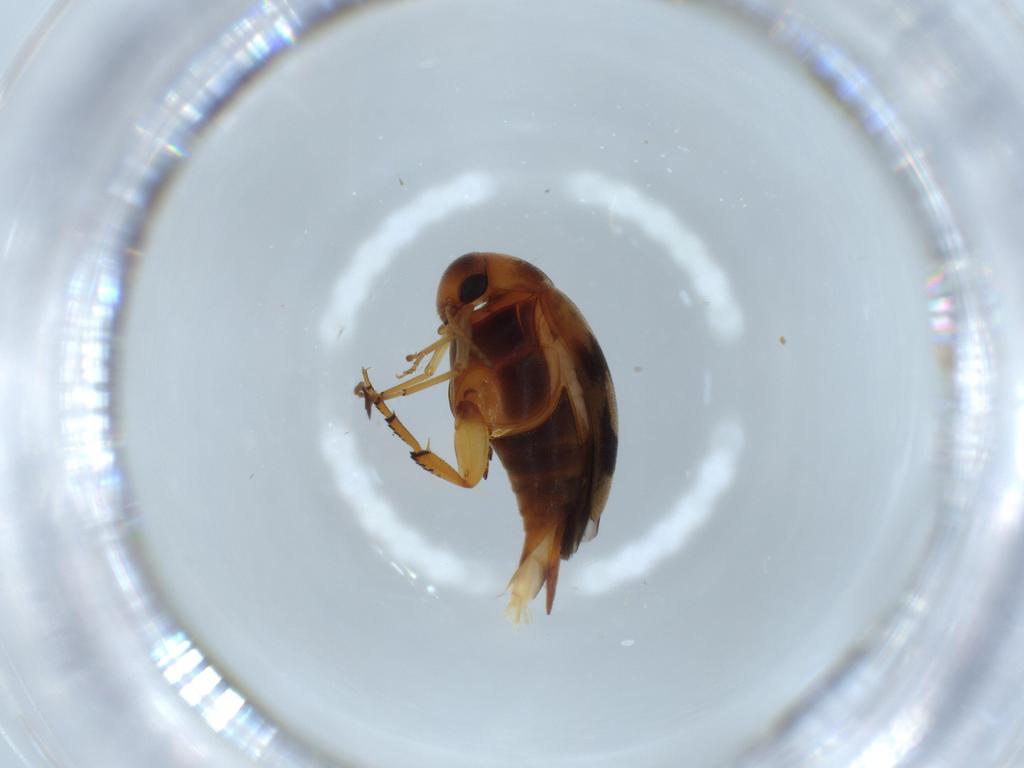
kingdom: Animalia
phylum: Arthropoda
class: Insecta
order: Coleoptera
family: Mordellidae
